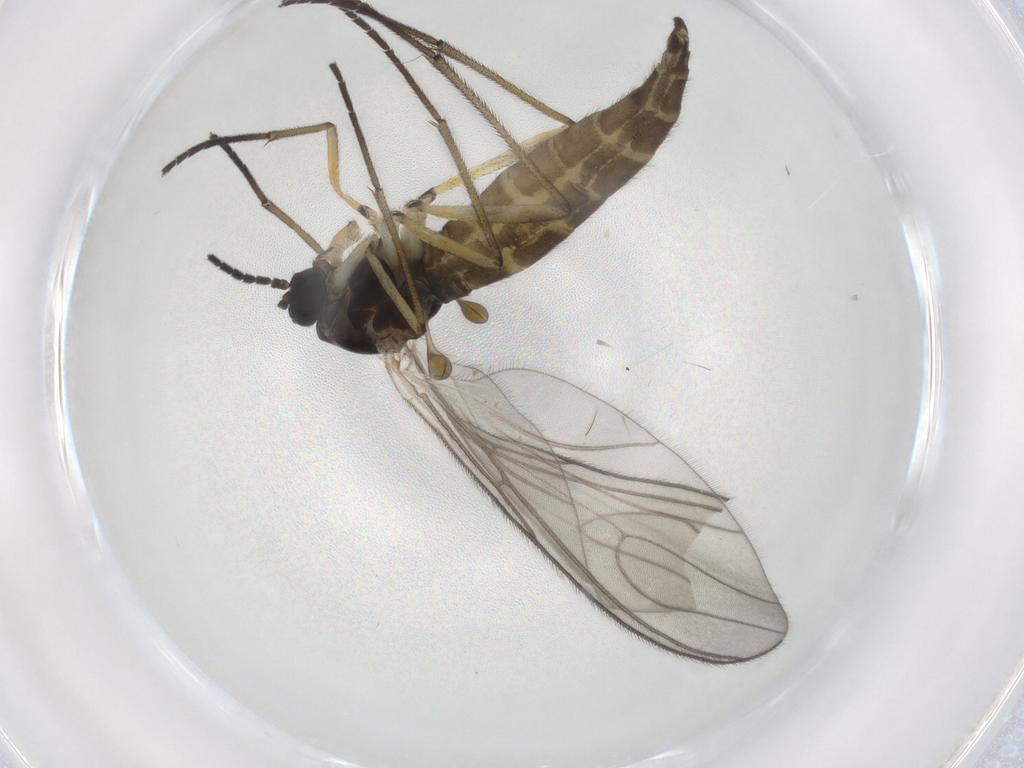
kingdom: Animalia
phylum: Arthropoda
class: Insecta
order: Diptera
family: Sciaridae
